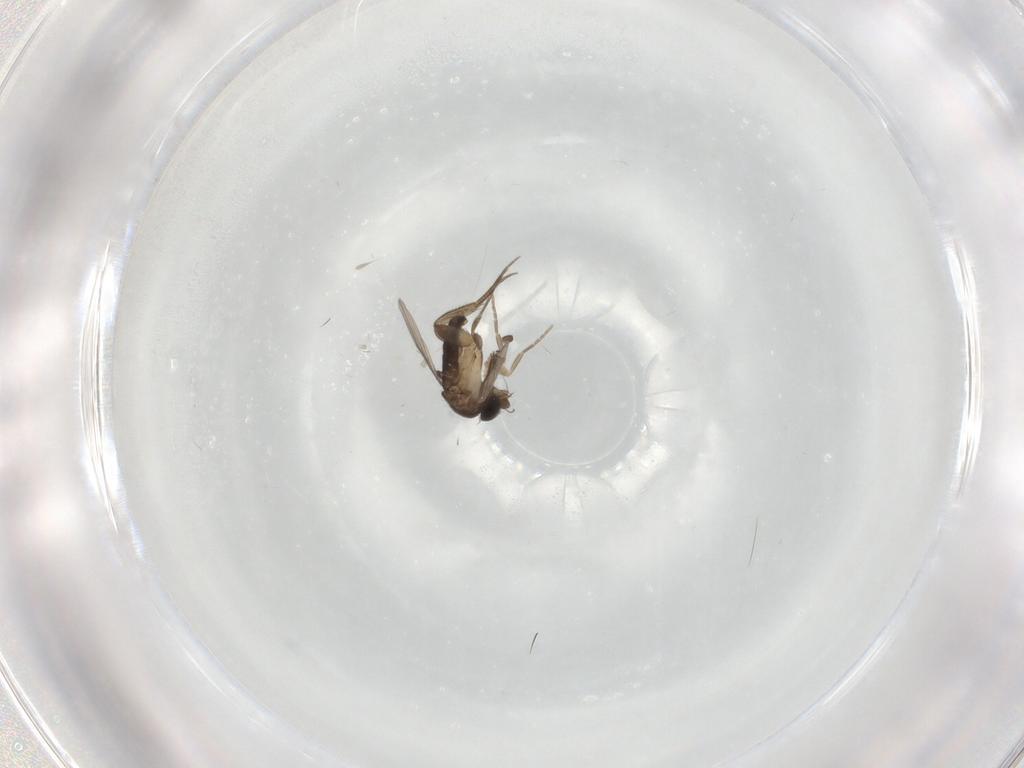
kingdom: Animalia
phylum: Arthropoda
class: Insecta
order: Diptera
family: Phoridae
